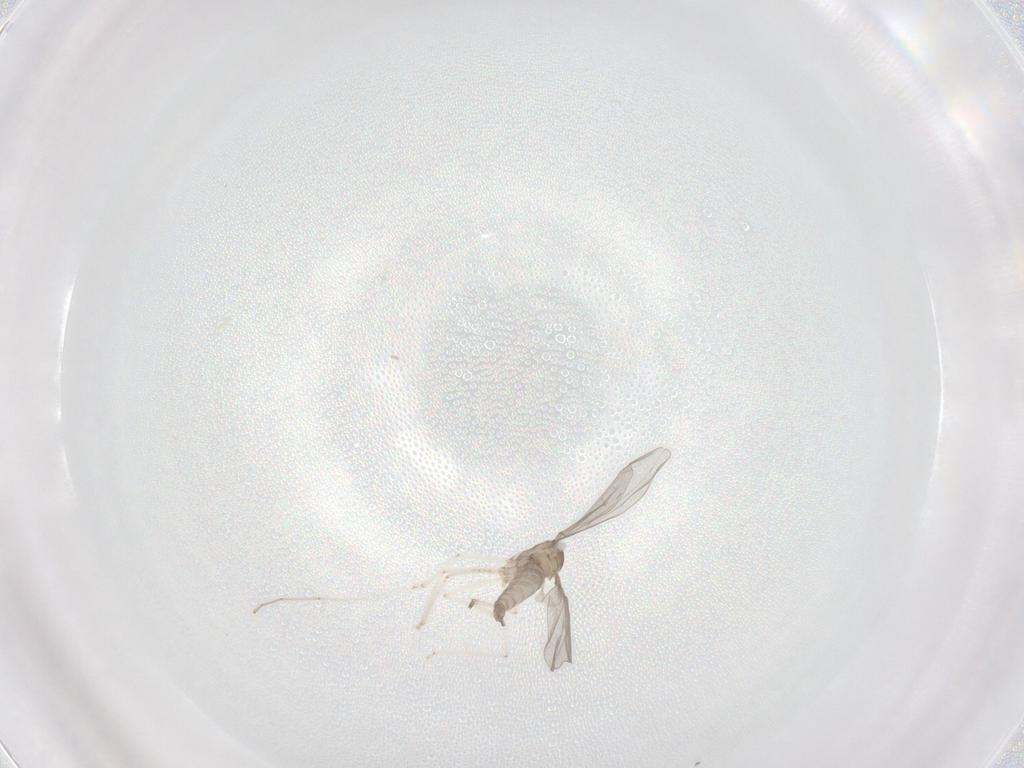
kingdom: Animalia
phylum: Arthropoda
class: Insecta
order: Diptera
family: Cecidomyiidae
